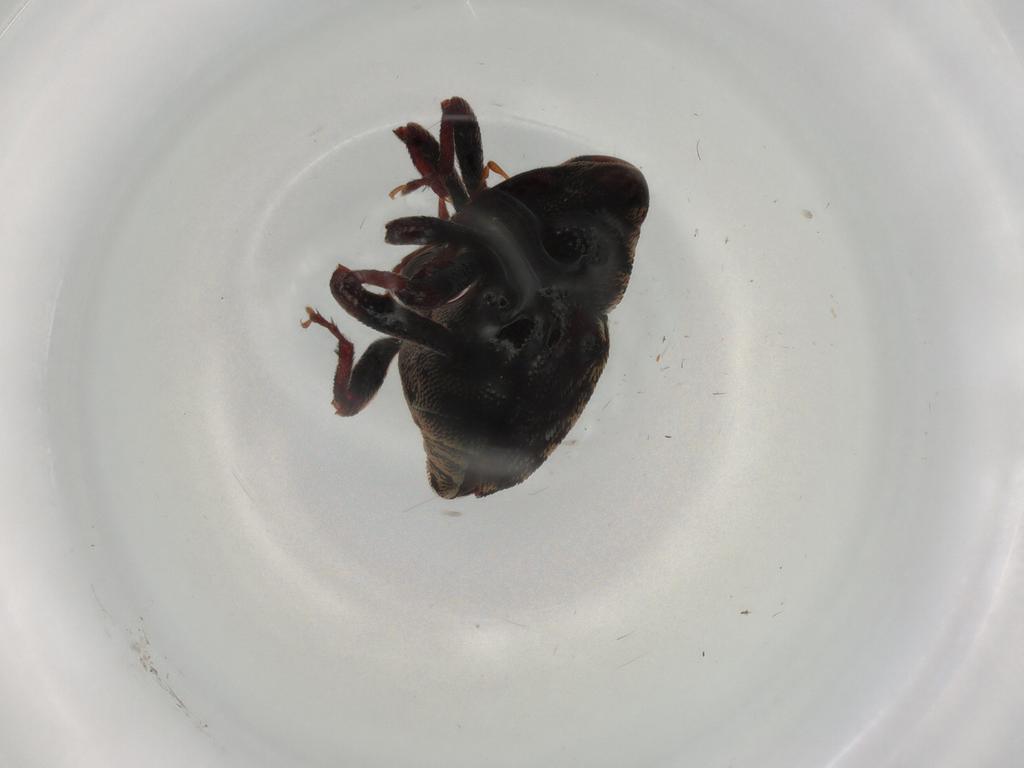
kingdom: Animalia
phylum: Arthropoda
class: Insecta
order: Coleoptera
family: Curculionidae
